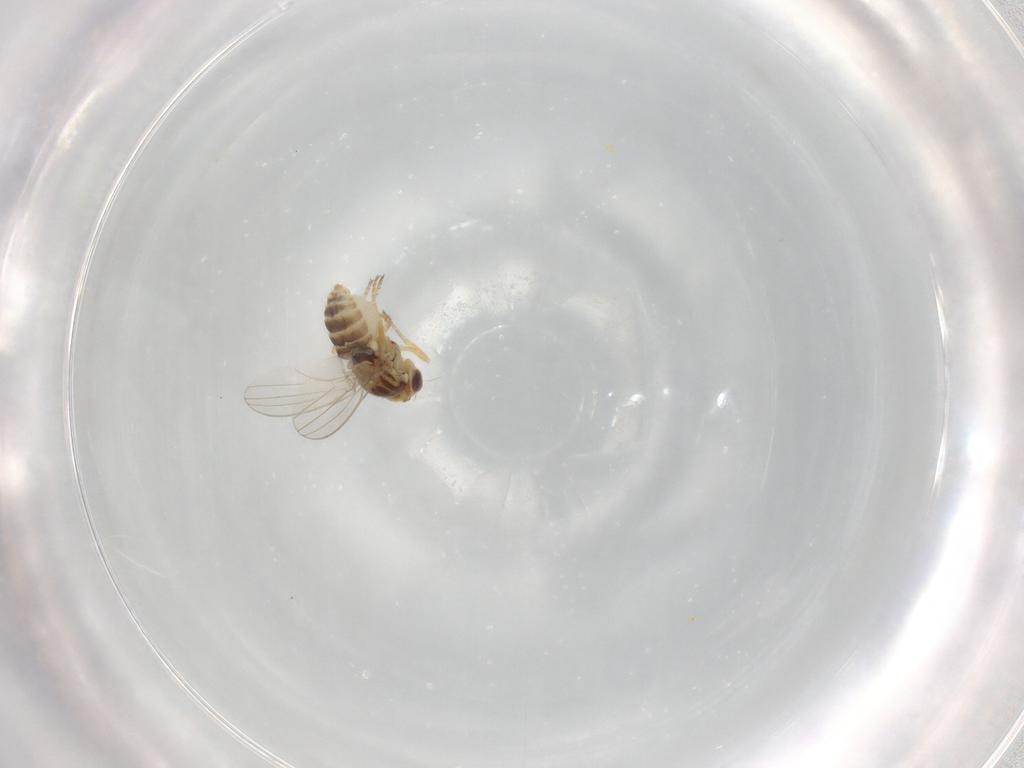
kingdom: Animalia
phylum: Arthropoda
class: Insecta
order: Diptera
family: Chyromyidae
